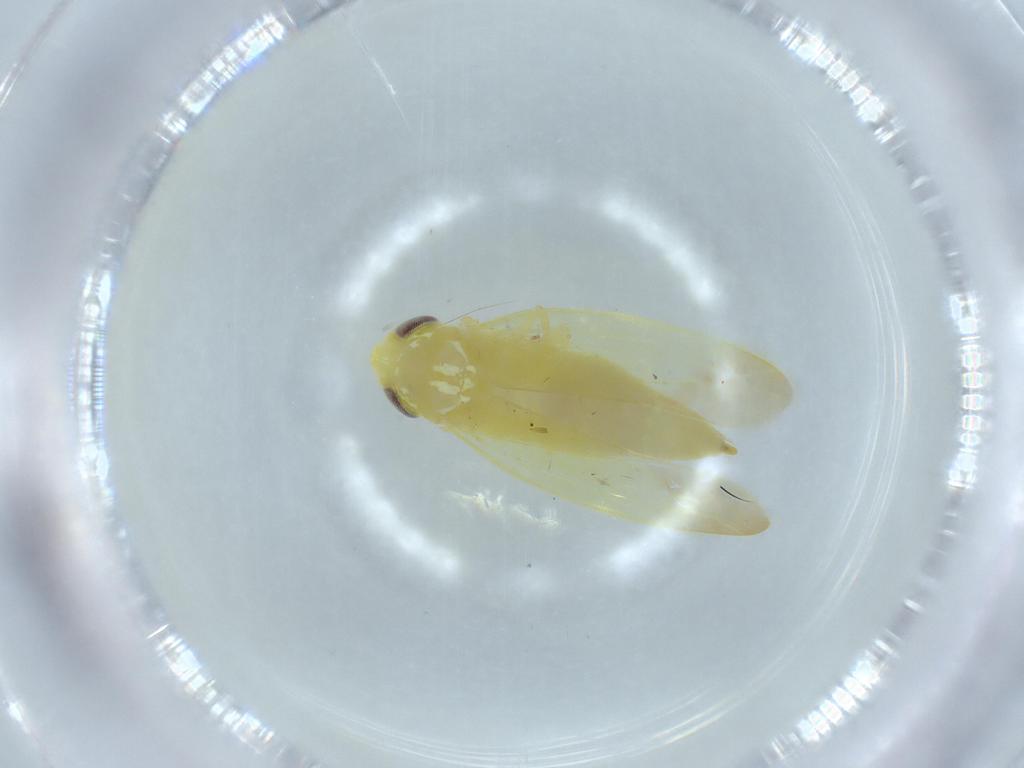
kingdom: Animalia
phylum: Arthropoda
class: Insecta
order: Hemiptera
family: Cicadellidae
